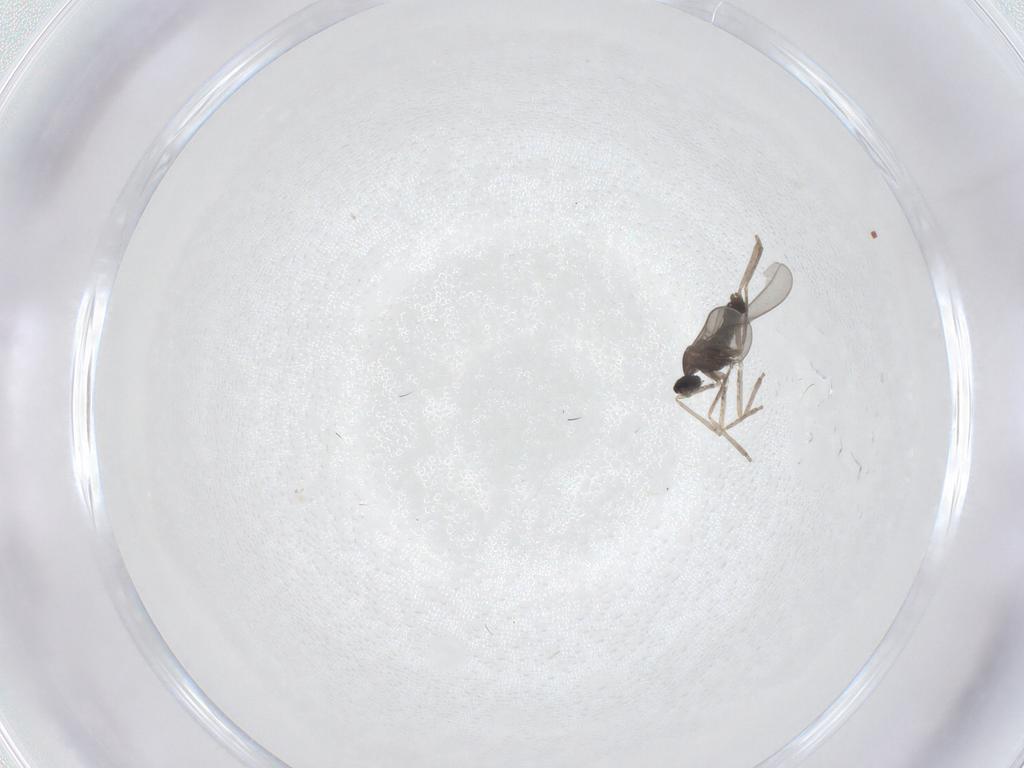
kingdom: Animalia
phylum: Arthropoda
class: Insecta
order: Diptera
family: Cecidomyiidae
